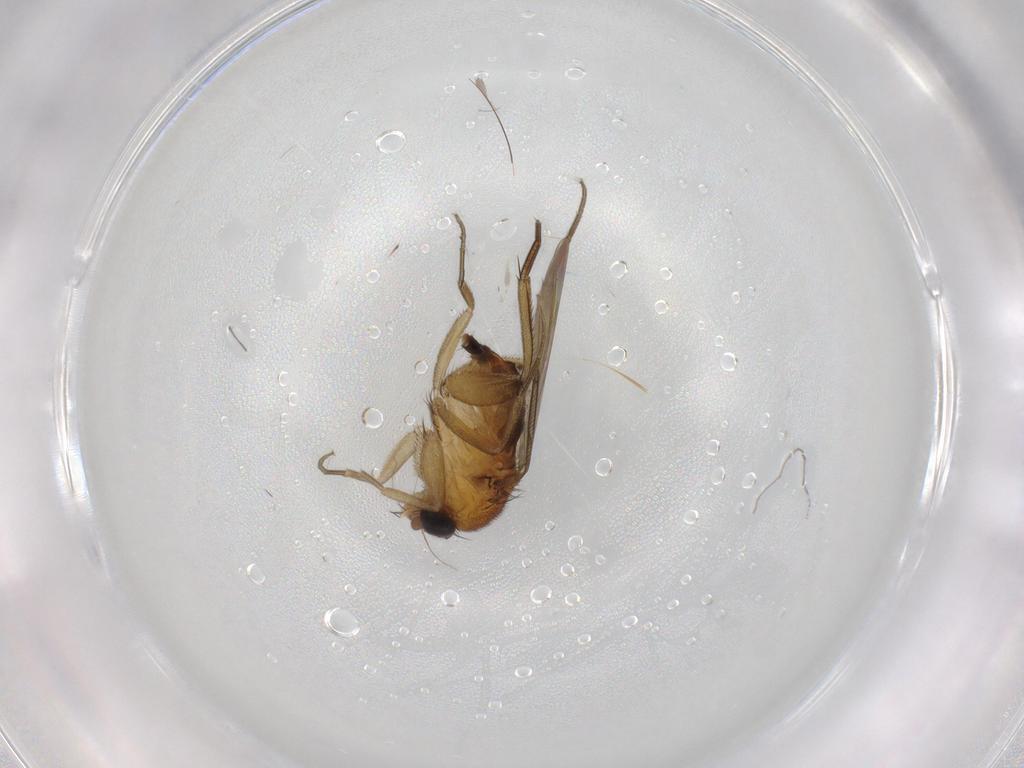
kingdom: Animalia
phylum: Arthropoda
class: Insecta
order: Diptera
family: Phoridae
